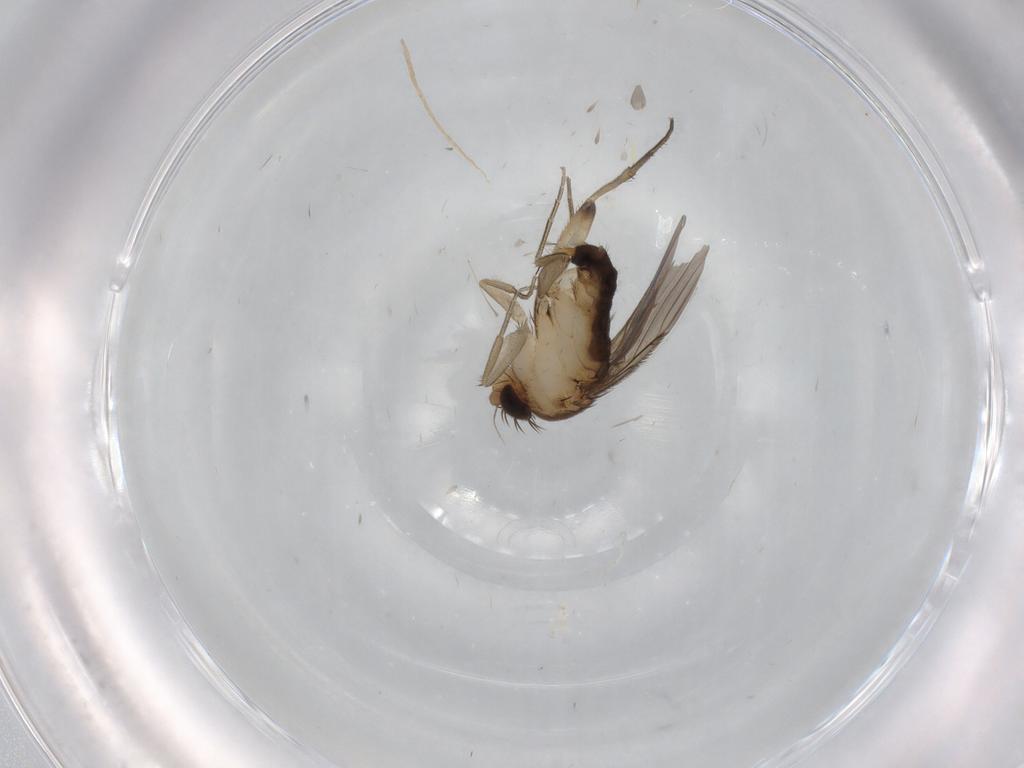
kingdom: Animalia
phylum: Arthropoda
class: Insecta
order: Diptera
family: Phoridae
